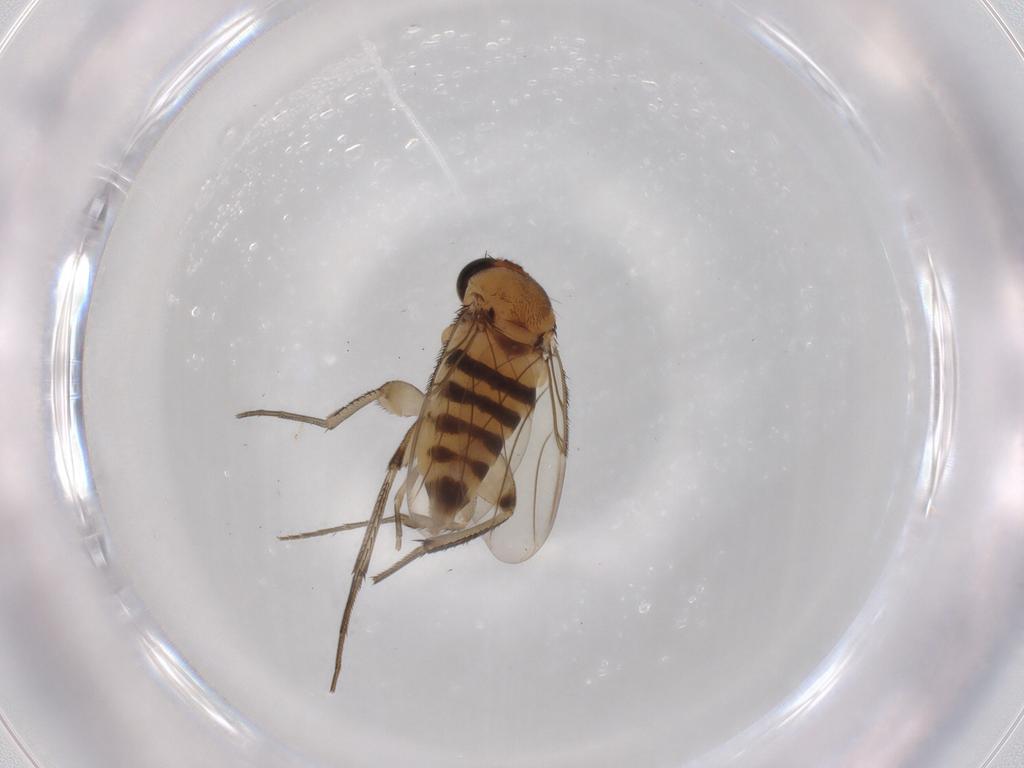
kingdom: Animalia
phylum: Arthropoda
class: Insecta
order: Diptera
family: Phoridae
